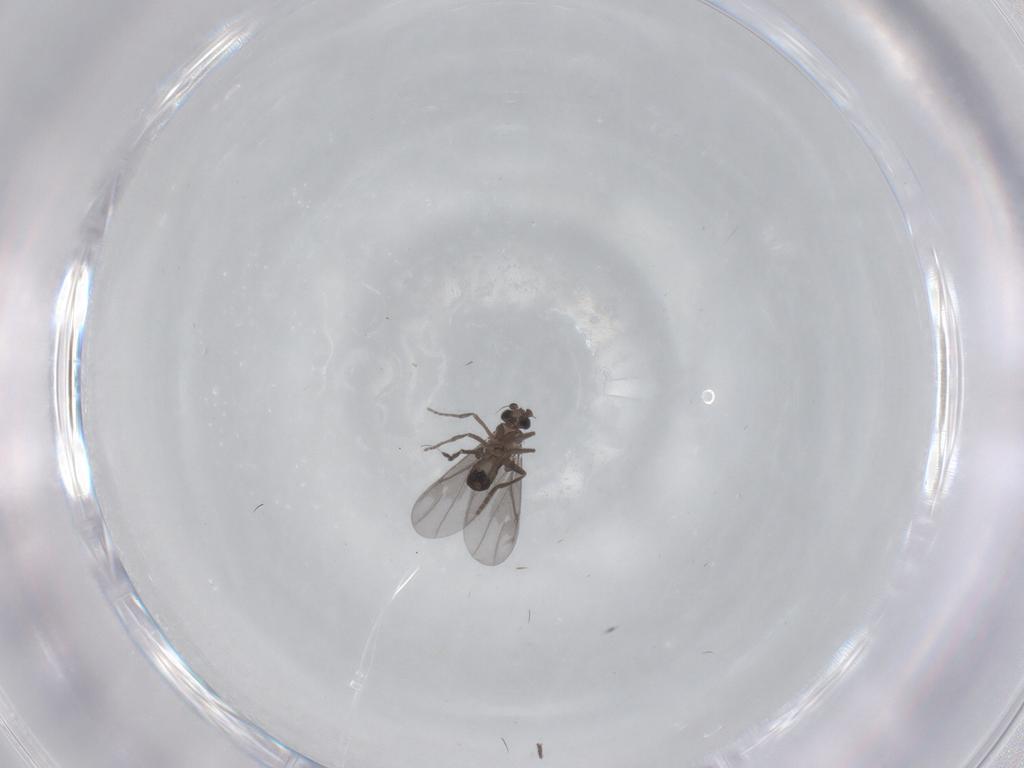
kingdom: Animalia
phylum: Arthropoda
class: Insecta
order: Diptera
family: Phoridae
